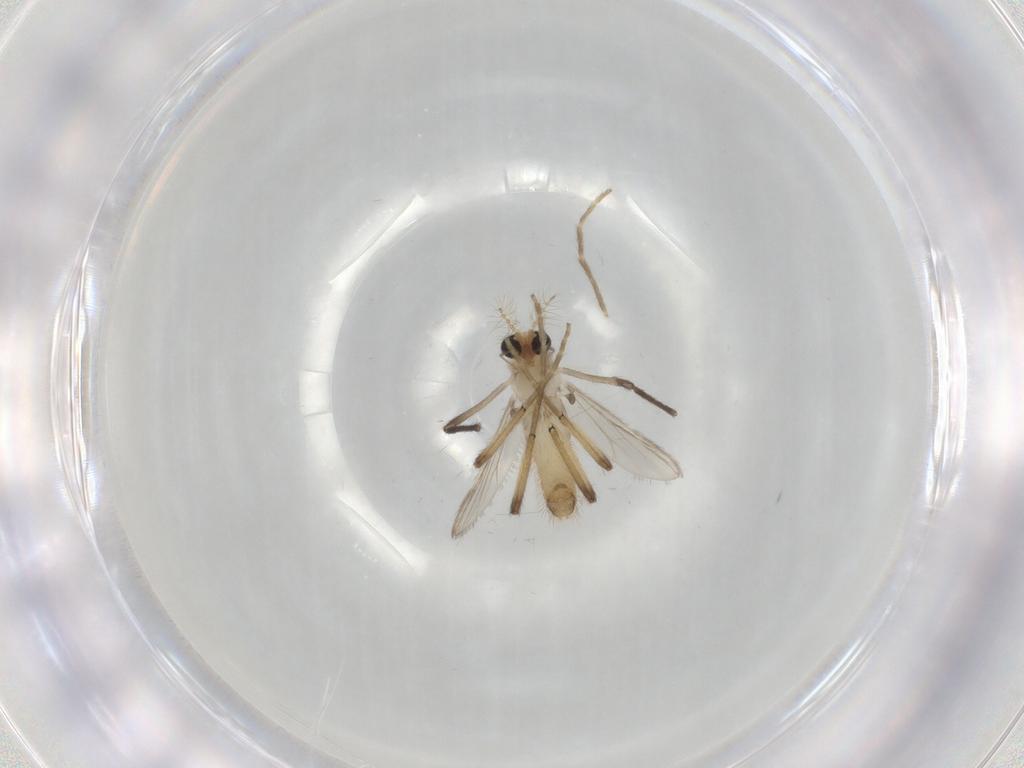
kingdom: Animalia
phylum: Arthropoda
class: Insecta
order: Diptera
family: Chironomidae
